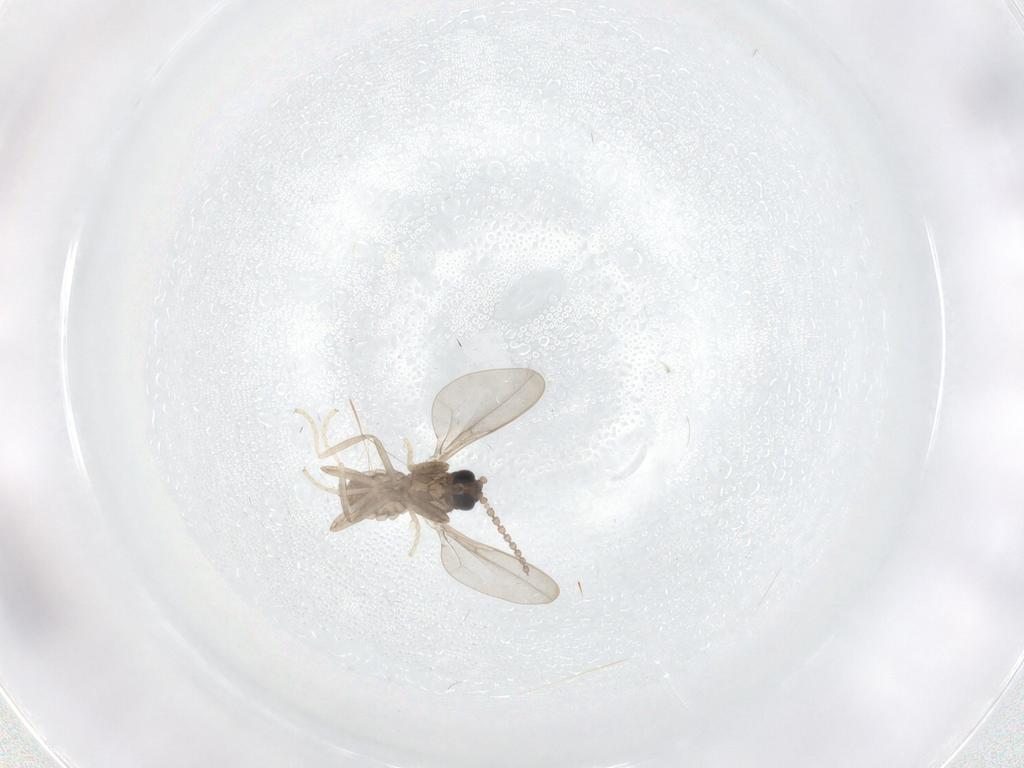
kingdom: Animalia
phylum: Arthropoda
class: Insecta
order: Diptera
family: Cecidomyiidae
